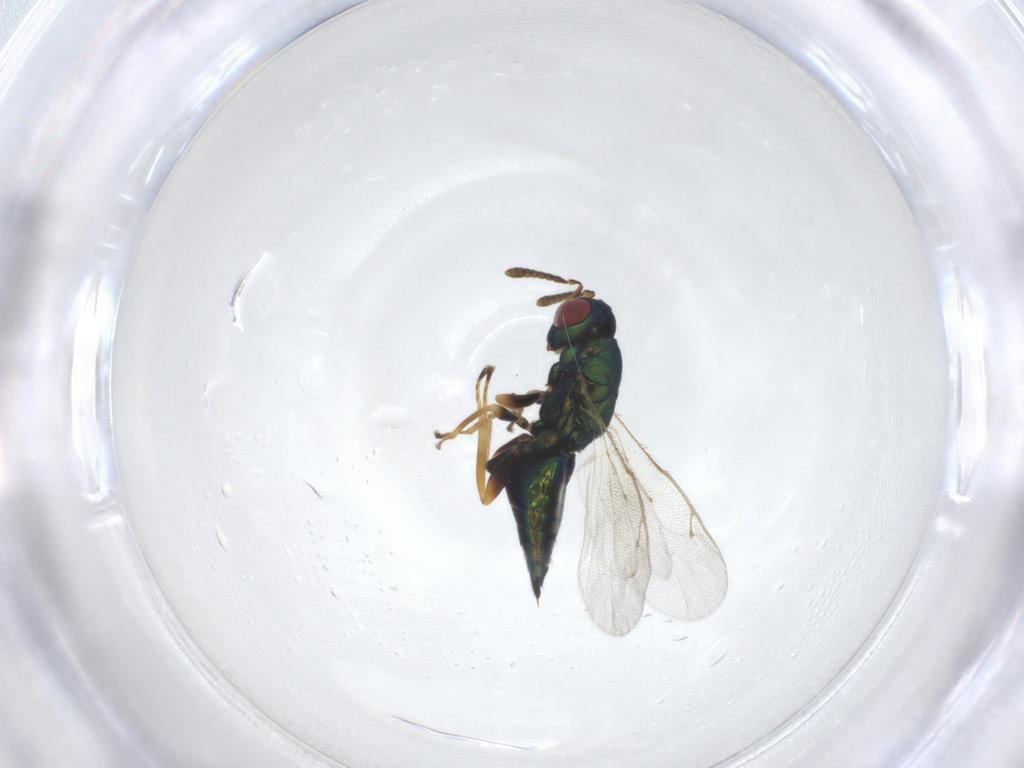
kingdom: Animalia
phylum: Arthropoda
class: Insecta
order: Hymenoptera
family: Pteromalidae
